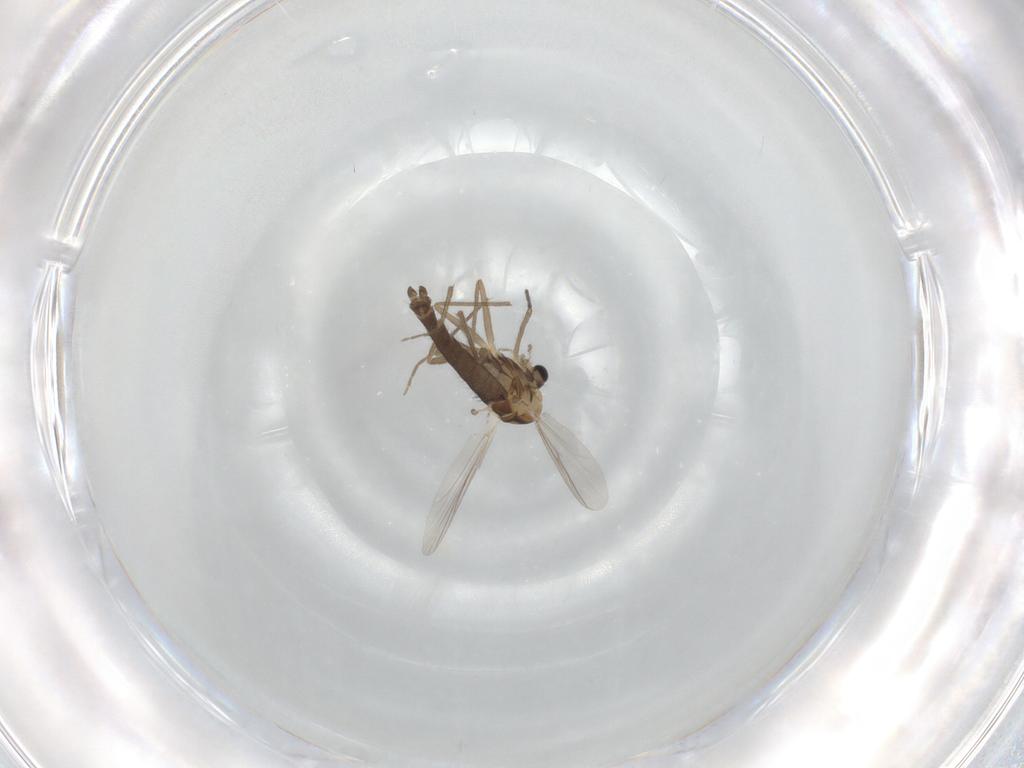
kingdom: Animalia
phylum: Arthropoda
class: Insecta
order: Diptera
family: Chironomidae
